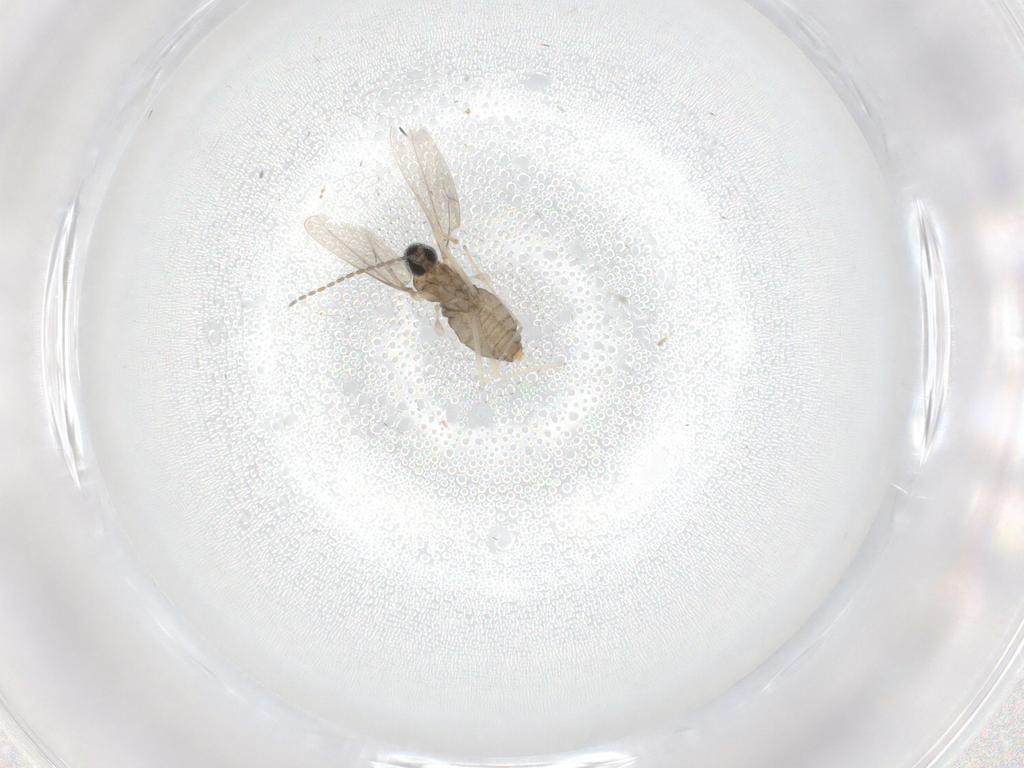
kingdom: Animalia
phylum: Arthropoda
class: Insecta
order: Diptera
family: Cecidomyiidae
